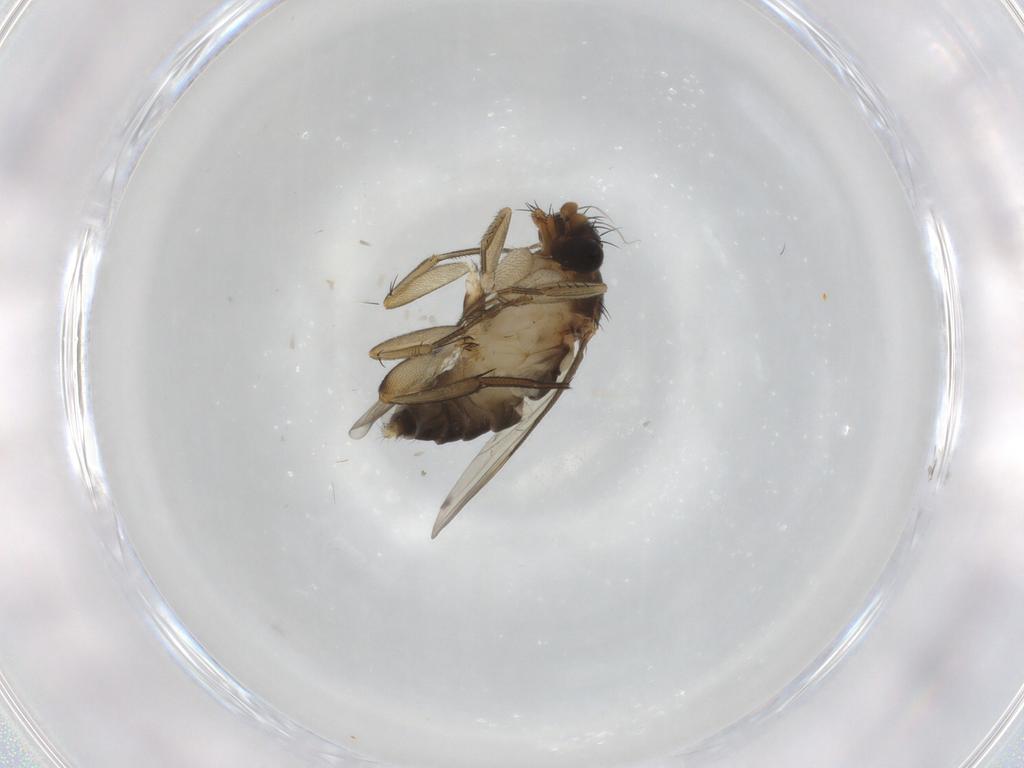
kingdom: Animalia
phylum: Arthropoda
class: Insecta
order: Diptera
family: Phoridae
